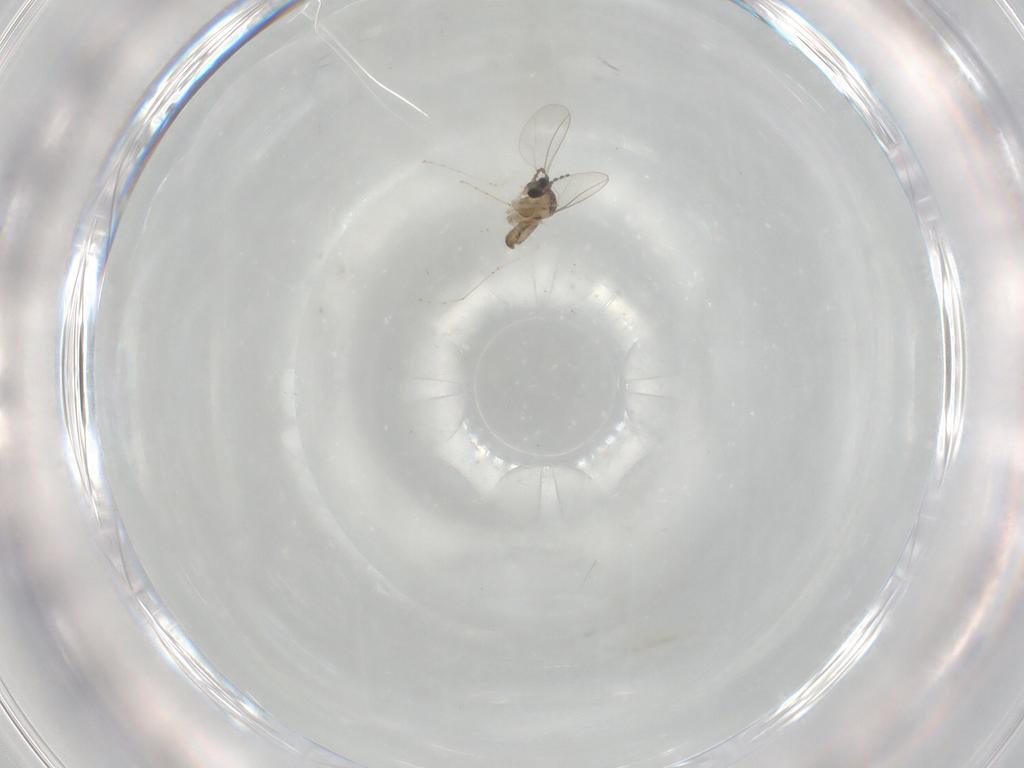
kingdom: Animalia
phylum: Arthropoda
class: Insecta
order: Diptera
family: Cecidomyiidae
